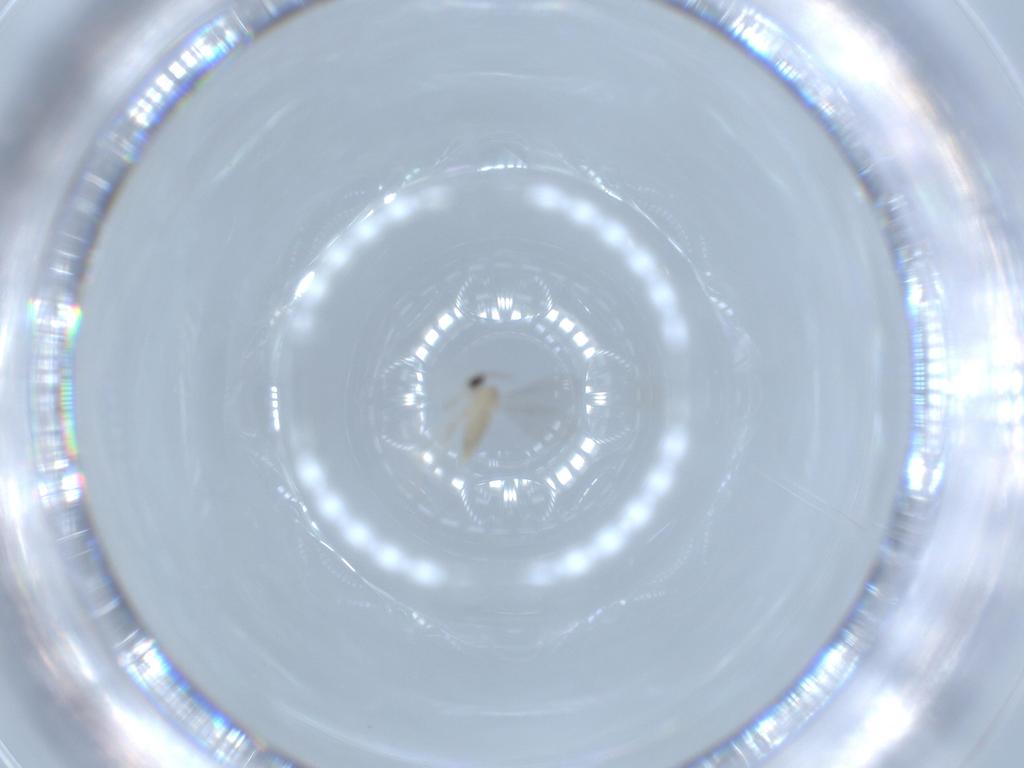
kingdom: Animalia
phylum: Arthropoda
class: Insecta
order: Diptera
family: Cecidomyiidae
